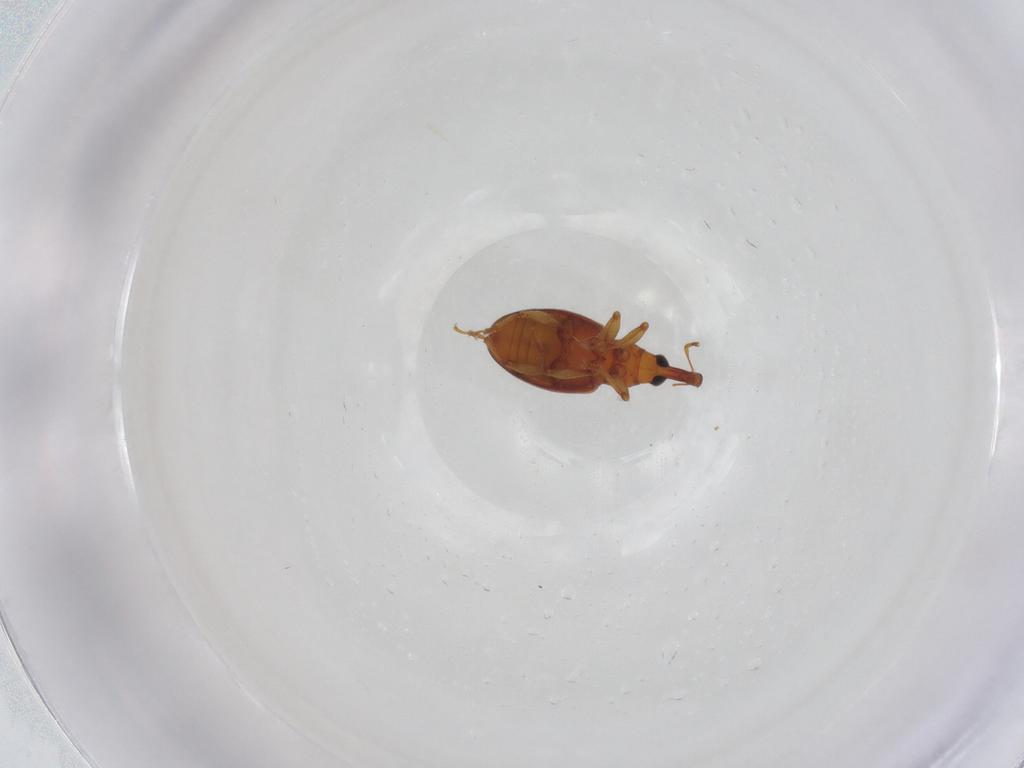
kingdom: Animalia
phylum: Arthropoda
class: Insecta
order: Coleoptera
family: Curculionidae
